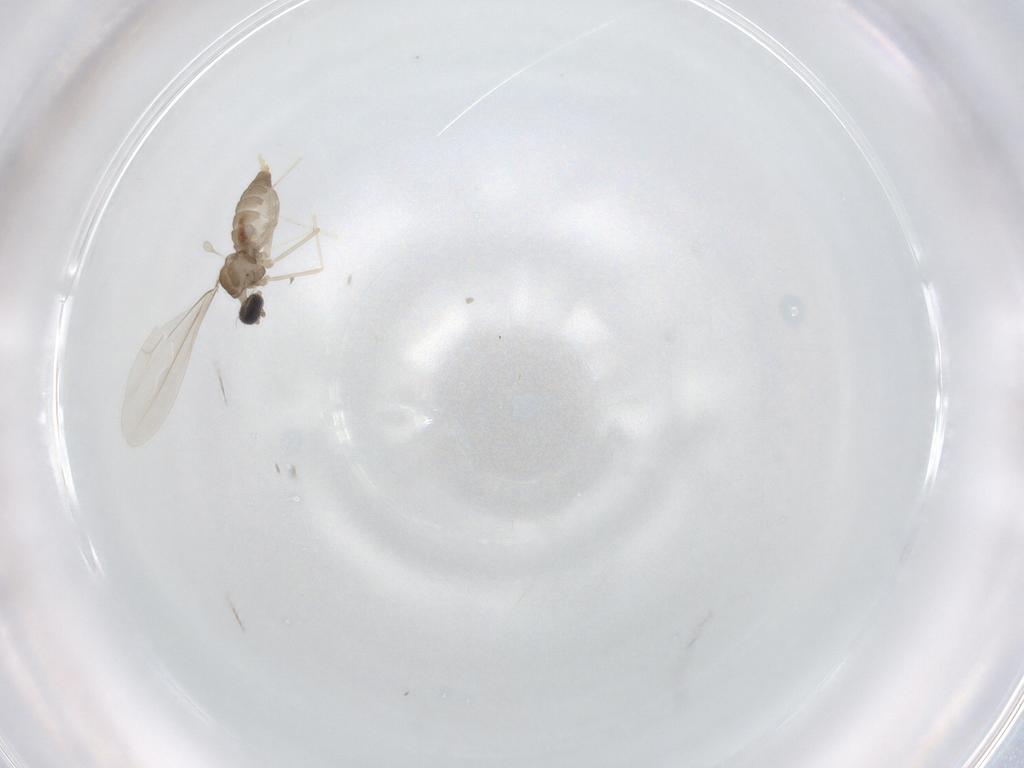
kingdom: Animalia
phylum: Arthropoda
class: Insecta
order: Diptera
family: Cecidomyiidae
